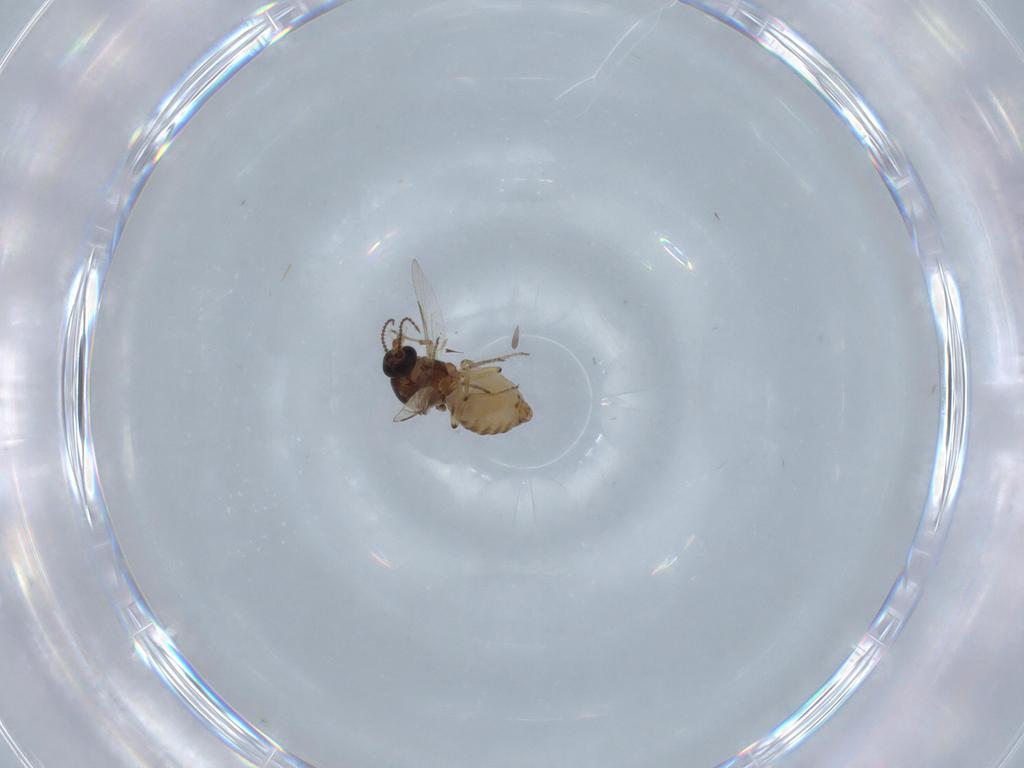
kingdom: Animalia
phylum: Arthropoda
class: Insecta
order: Diptera
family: Ceratopogonidae
